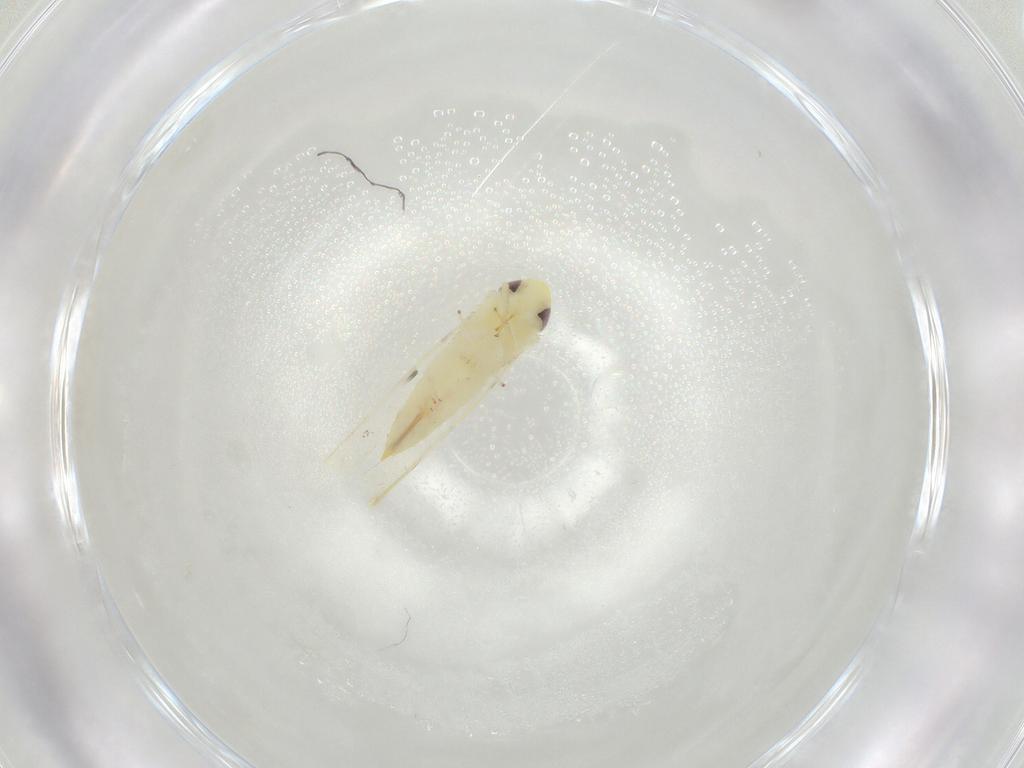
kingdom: Animalia
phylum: Arthropoda
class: Insecta
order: Hemiptera
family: Cicadellidae
